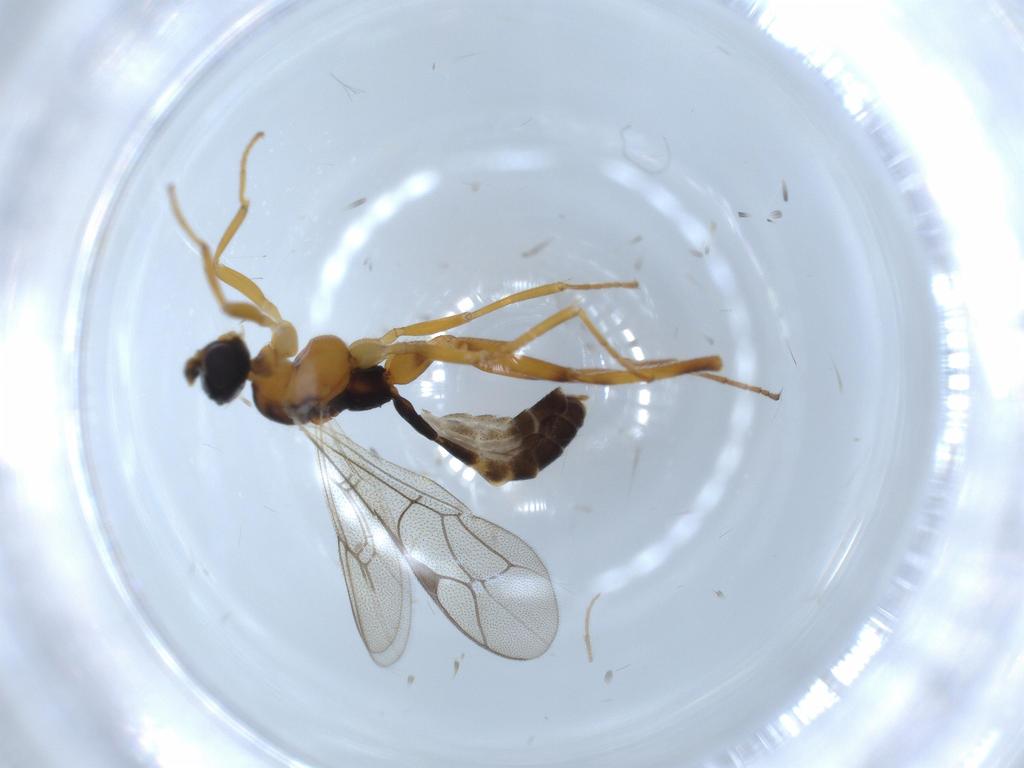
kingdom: Animalia
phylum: Arthropoda
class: Insecta
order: Hymenoptera
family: Ichneumonidae
